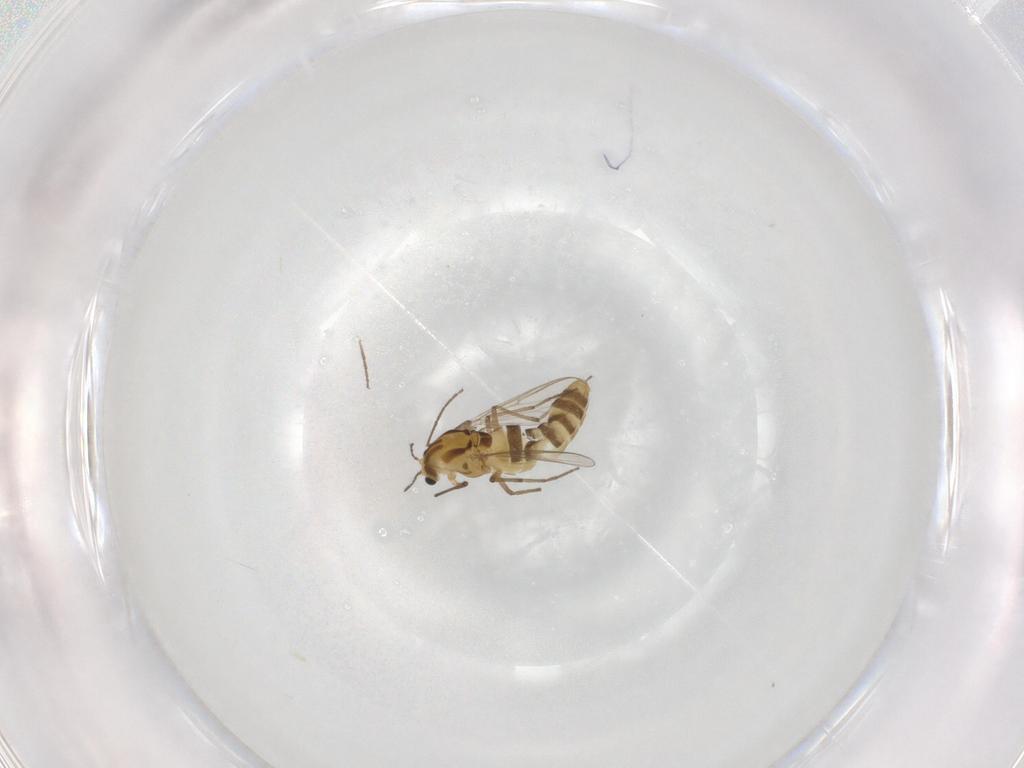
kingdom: Animalia
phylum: Arthropoda
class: Insecta
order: Diptera
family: Chironomidae
